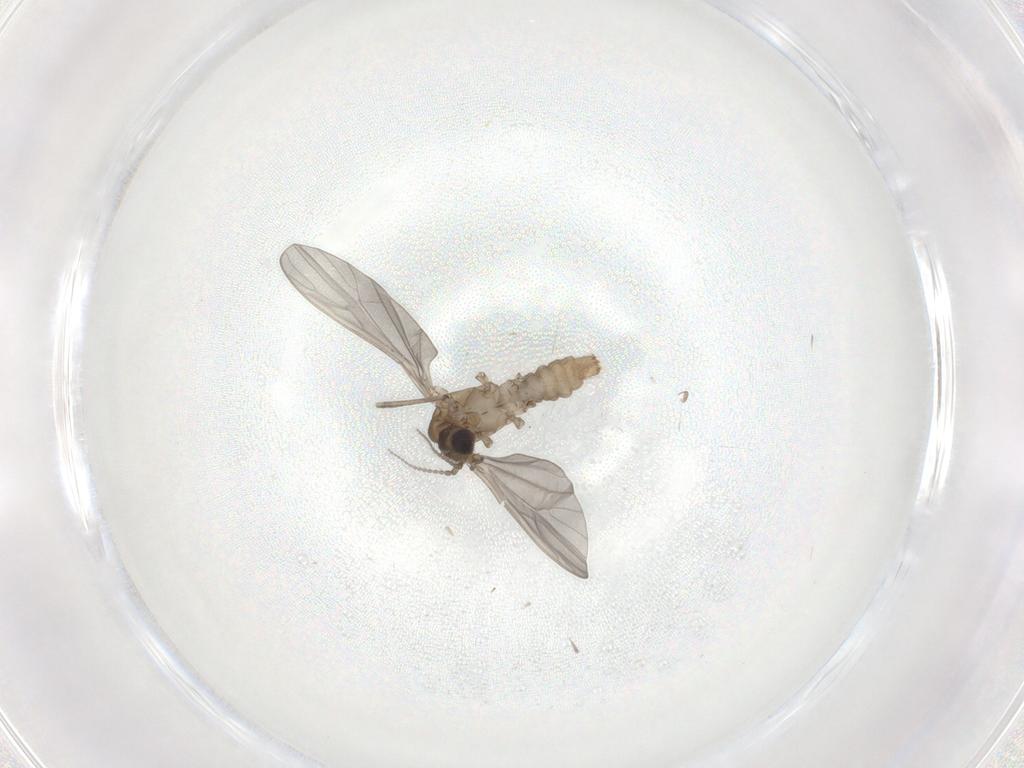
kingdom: Animalia
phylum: Arthropoda
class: Insecta
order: Diptera
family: Limoniidae
